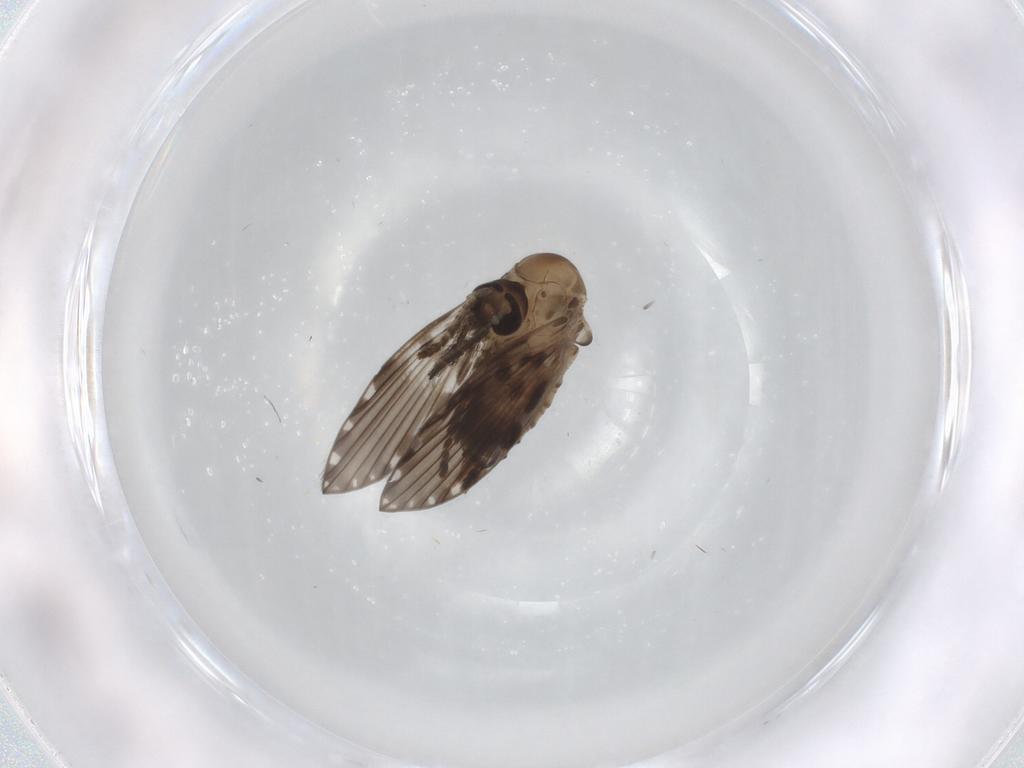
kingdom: Animalia
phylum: Arthropoda
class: Insecta
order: Diptera
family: Psychodidae
